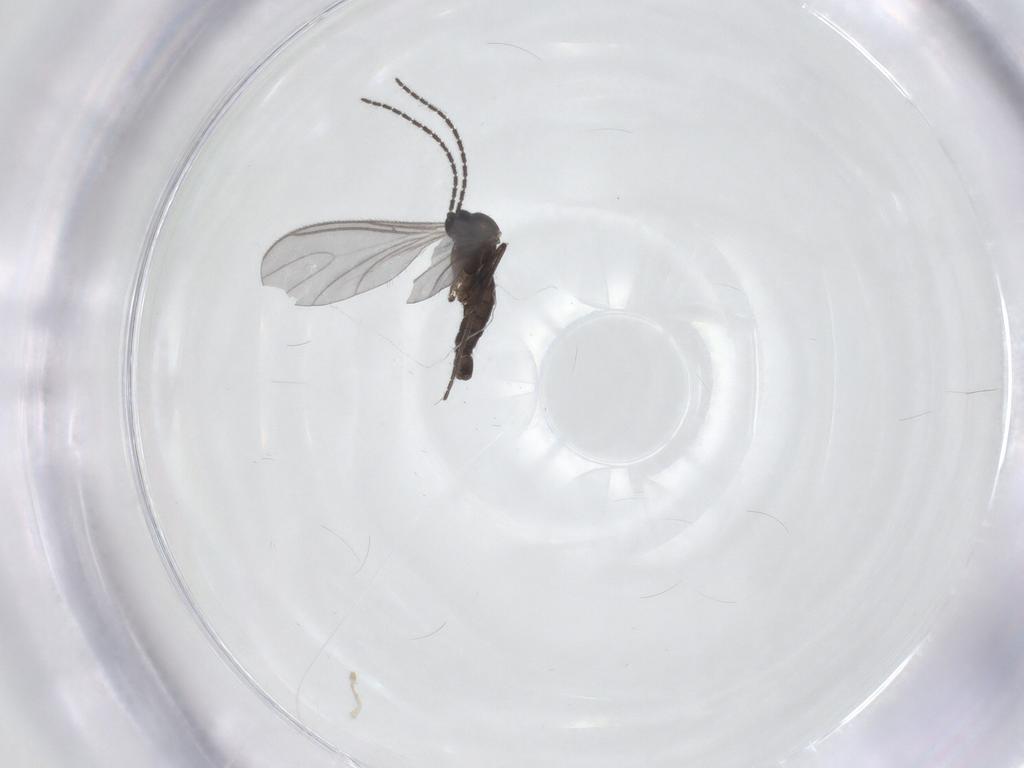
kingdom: Animalia
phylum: Arthropoda
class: Insecta
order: Diptera
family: Sciaridae
